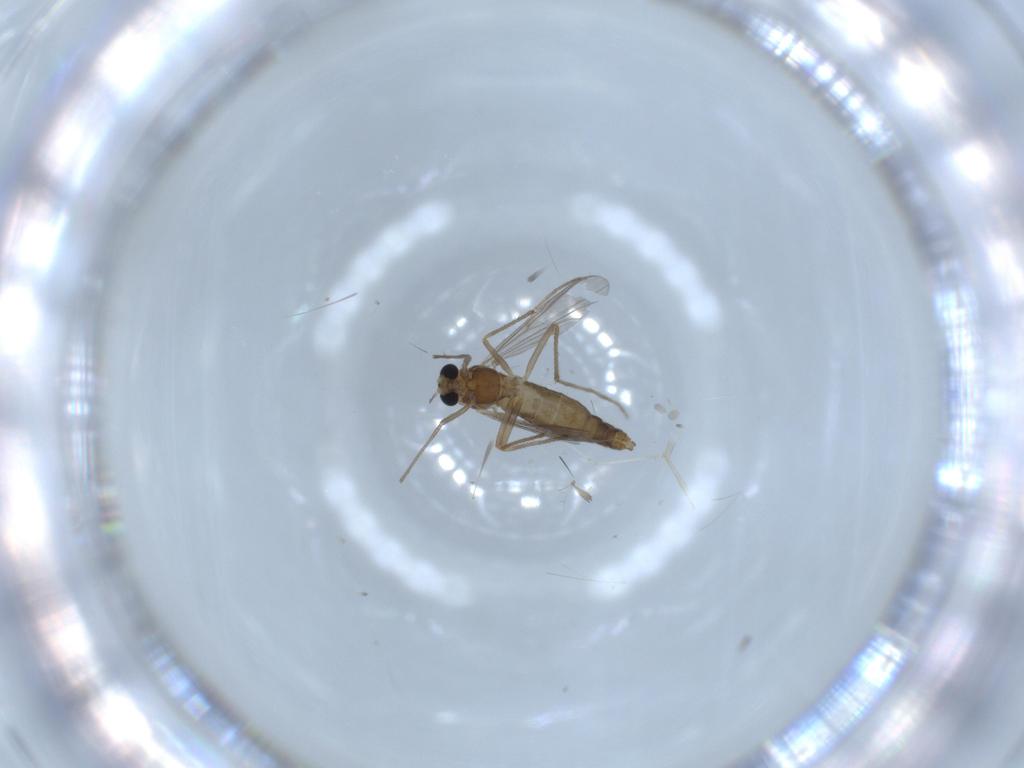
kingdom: Animalia
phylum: Arthropoda
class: Insecta
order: Diptera
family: Chironomidae
